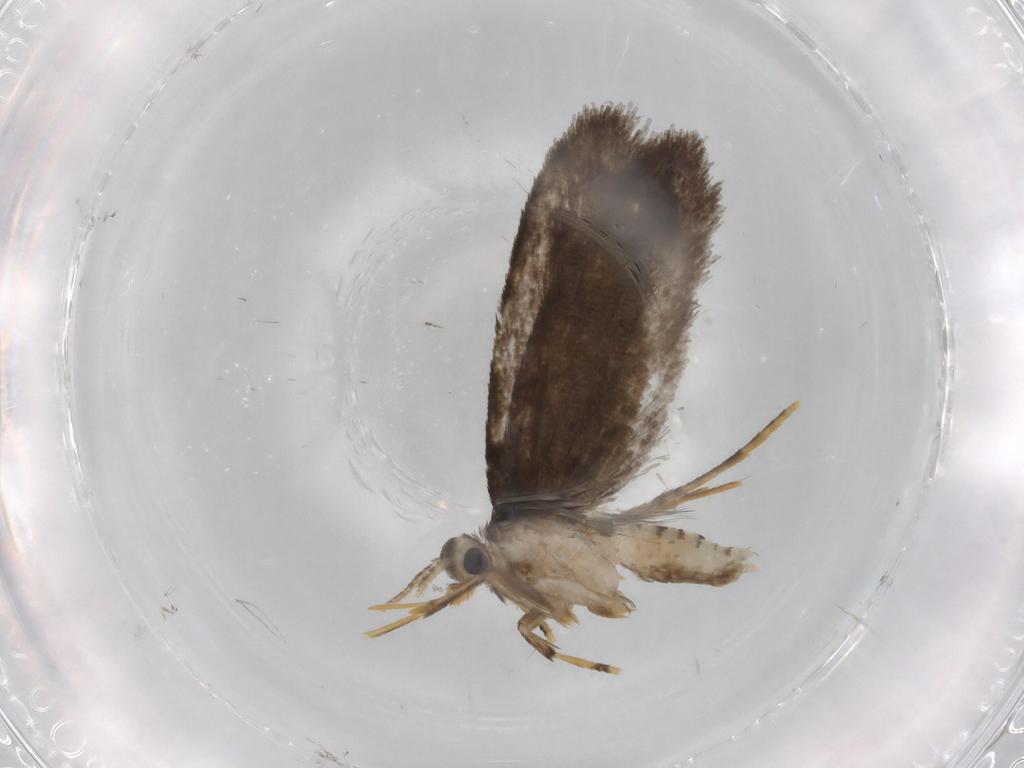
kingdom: Animalia
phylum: Arthropoda
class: Insecta
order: Lepidoptera
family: Psychidae
